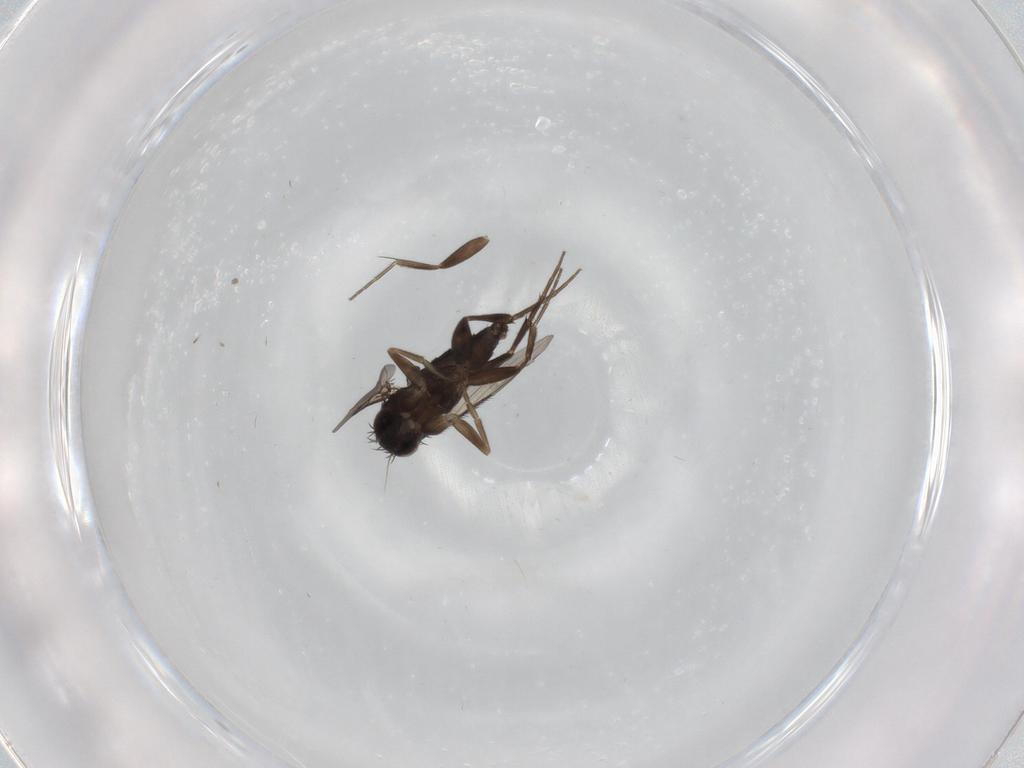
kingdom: Animalia
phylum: Arthropoda
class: Insecta
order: Diptera
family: Phoridae
